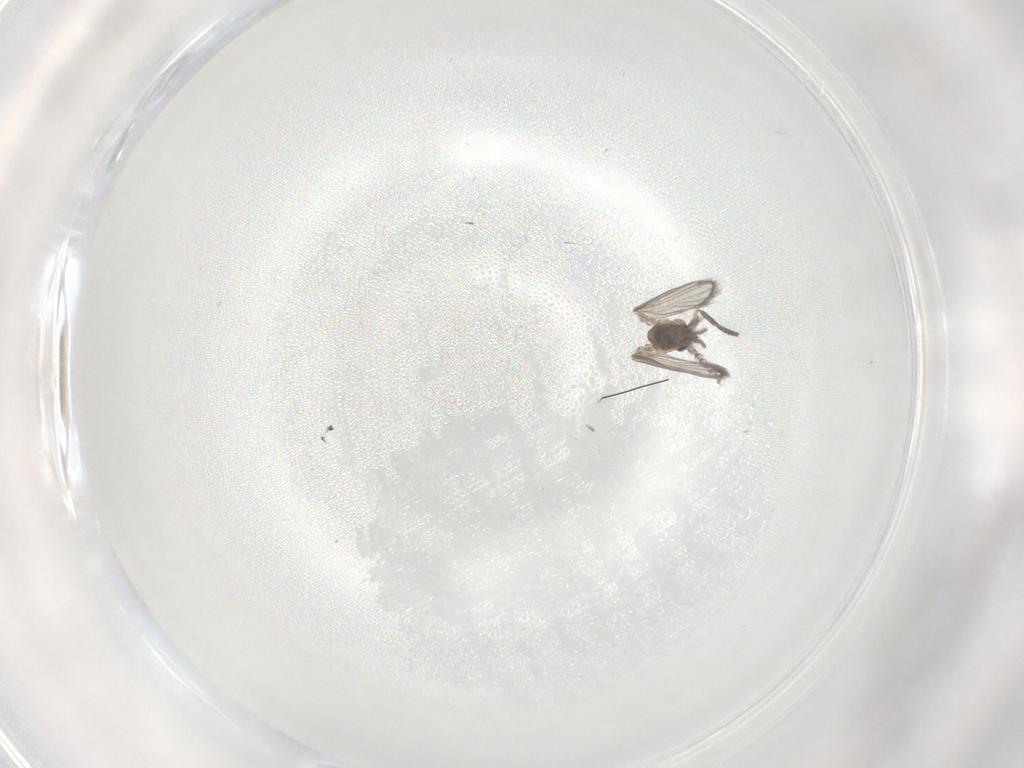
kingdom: Animalia
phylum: Arthropoda
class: Insecta
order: Diptera
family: Psychodidae
